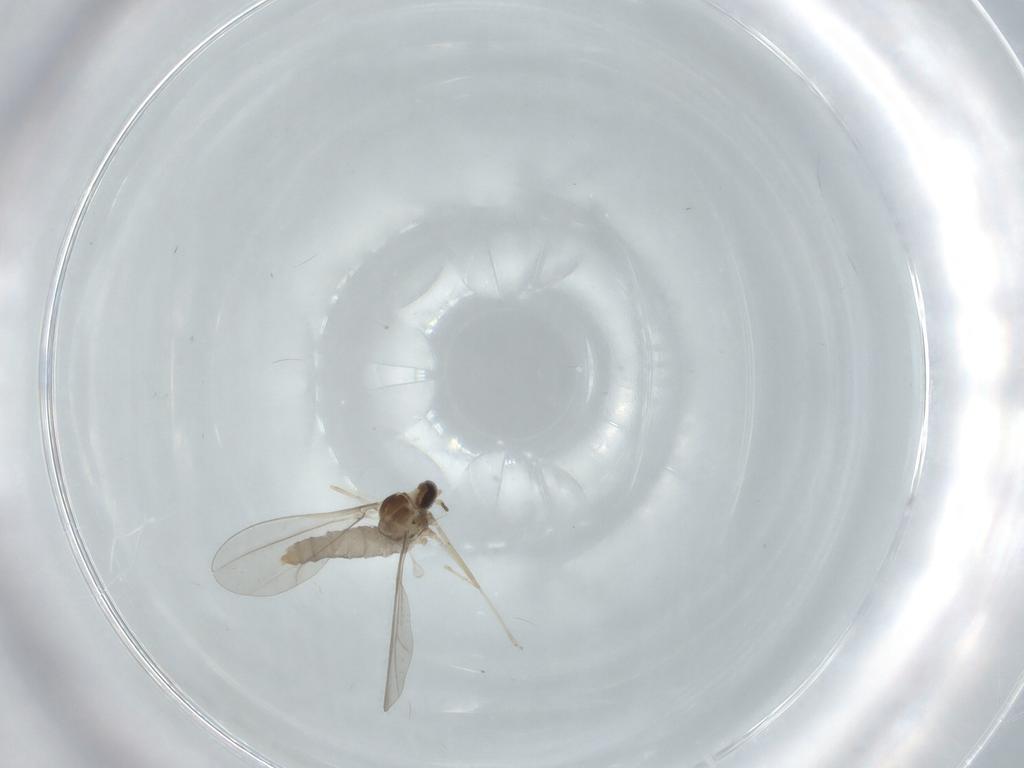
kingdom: Animalia
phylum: Arthropoda
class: Insecta
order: Diptera
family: Cecidomyiidae
